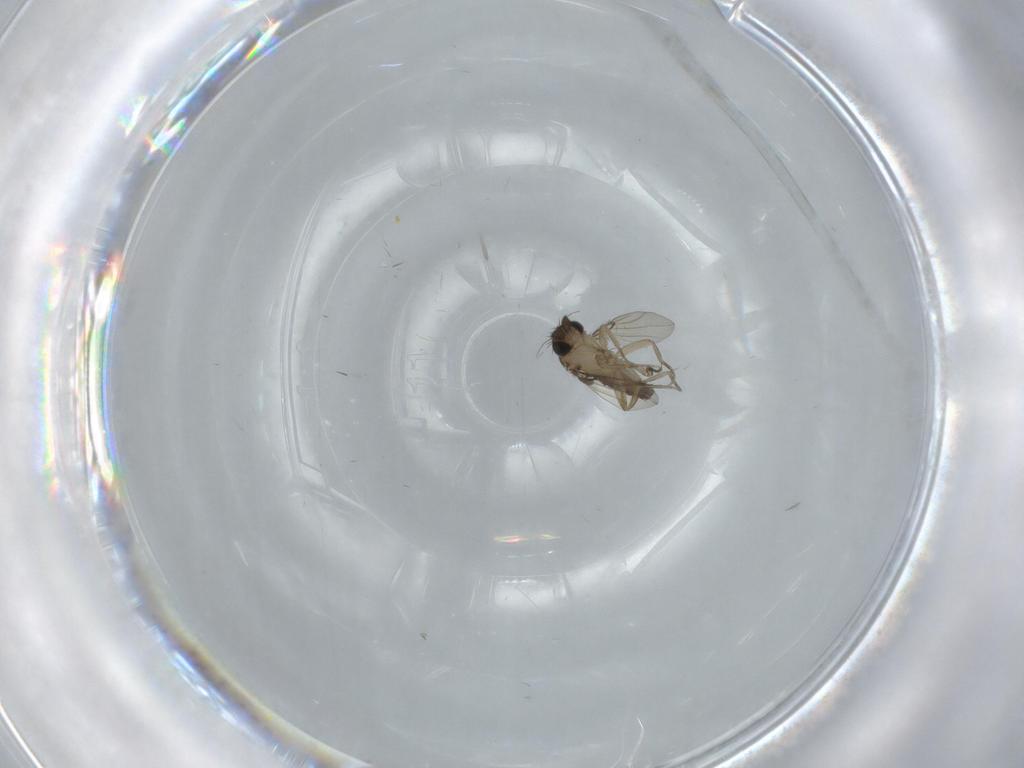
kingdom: Animalia
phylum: Arthropoda
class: Insecta
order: Diptera
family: Phoridae
